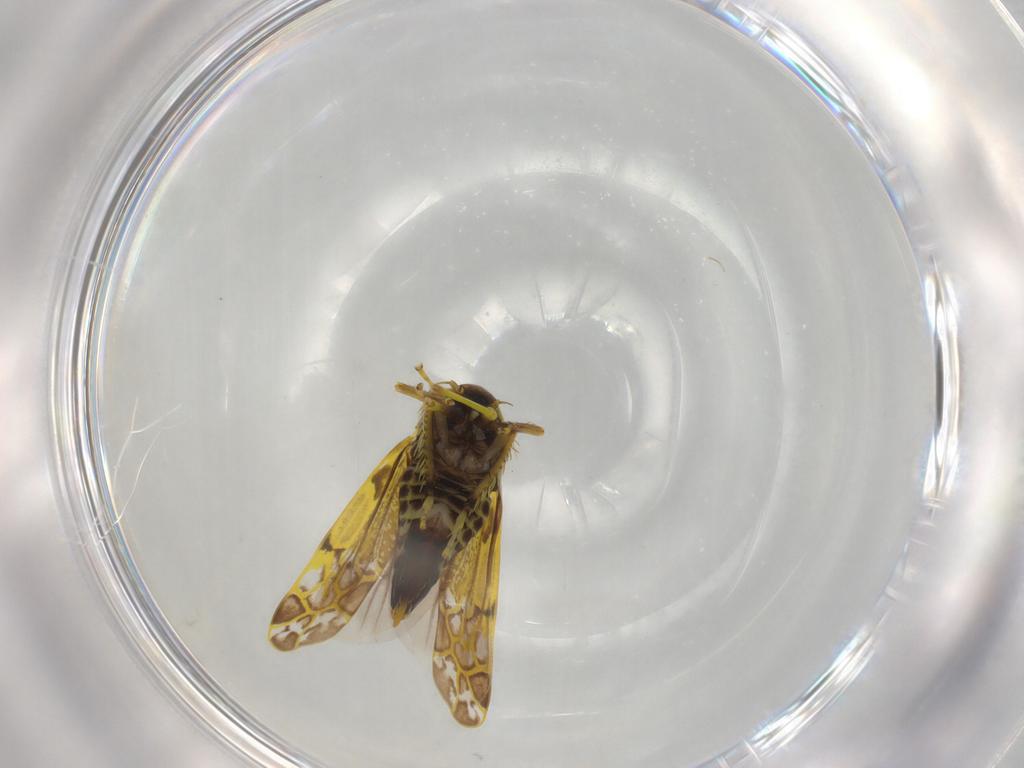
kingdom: Animalia
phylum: Arthropoda
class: Insecta
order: Hemiptera
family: Cicadellidae
